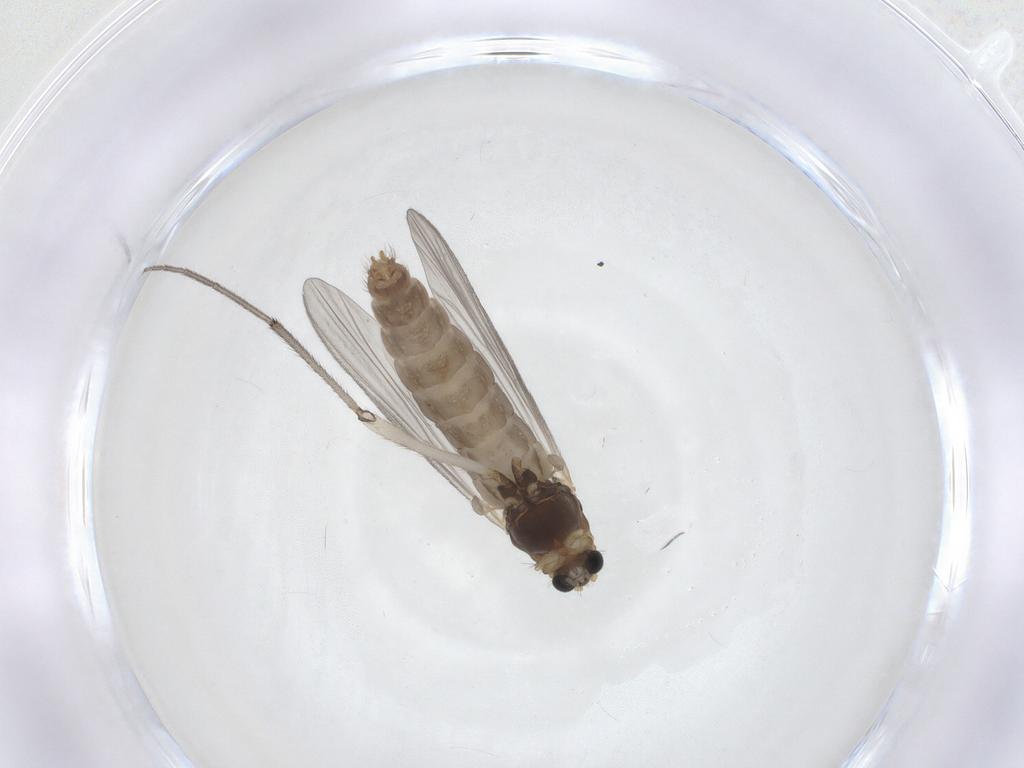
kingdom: Animalia
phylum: Arthropoda
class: Insecta
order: Diptera
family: Chironomidae
